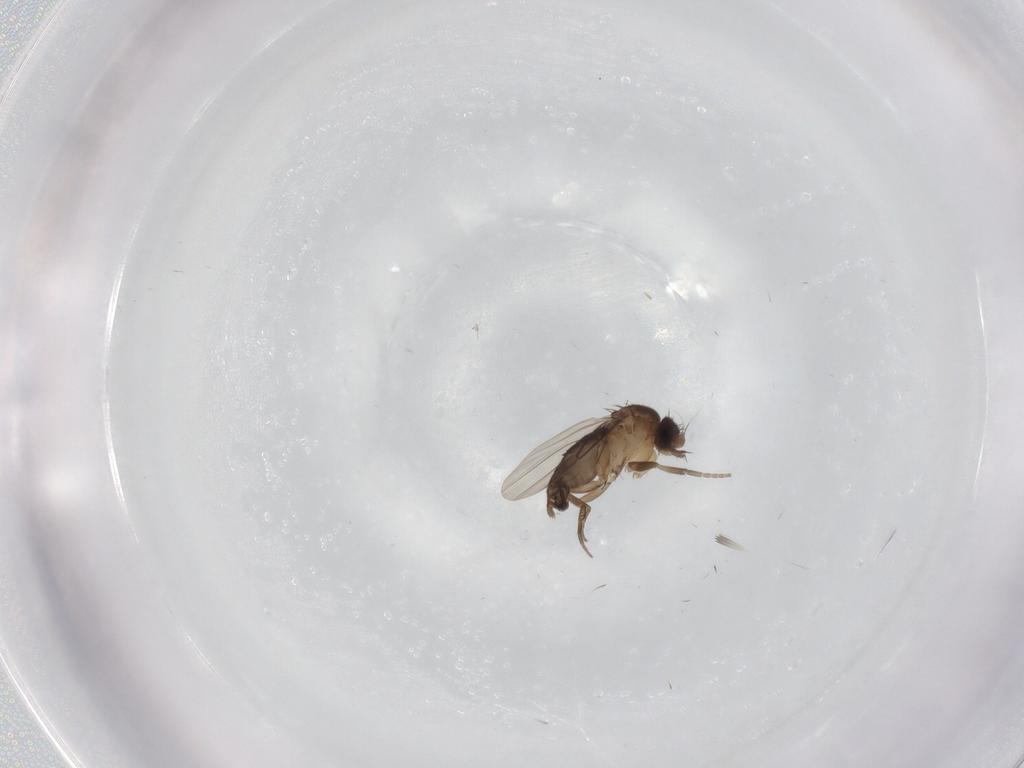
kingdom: Animalia
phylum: Arthropoda
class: Insecta
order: Diptera
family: Phoridae
